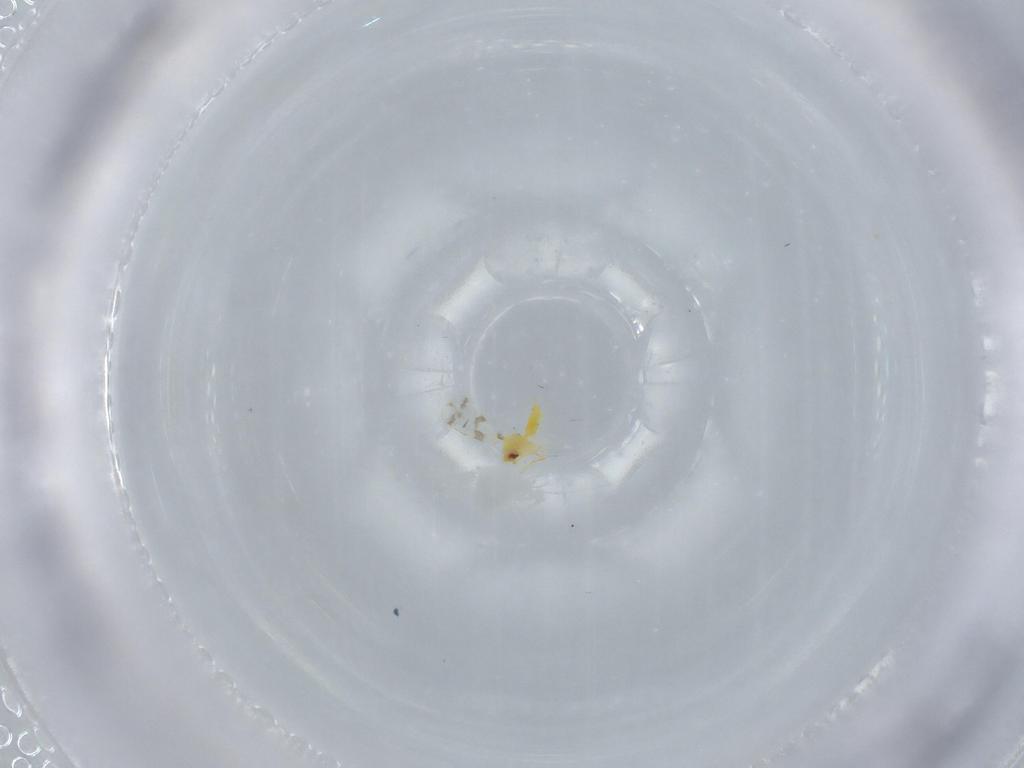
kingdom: Animalia
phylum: Arthropoda
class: Insecta
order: Hemiptera
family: Aleyrodidae
